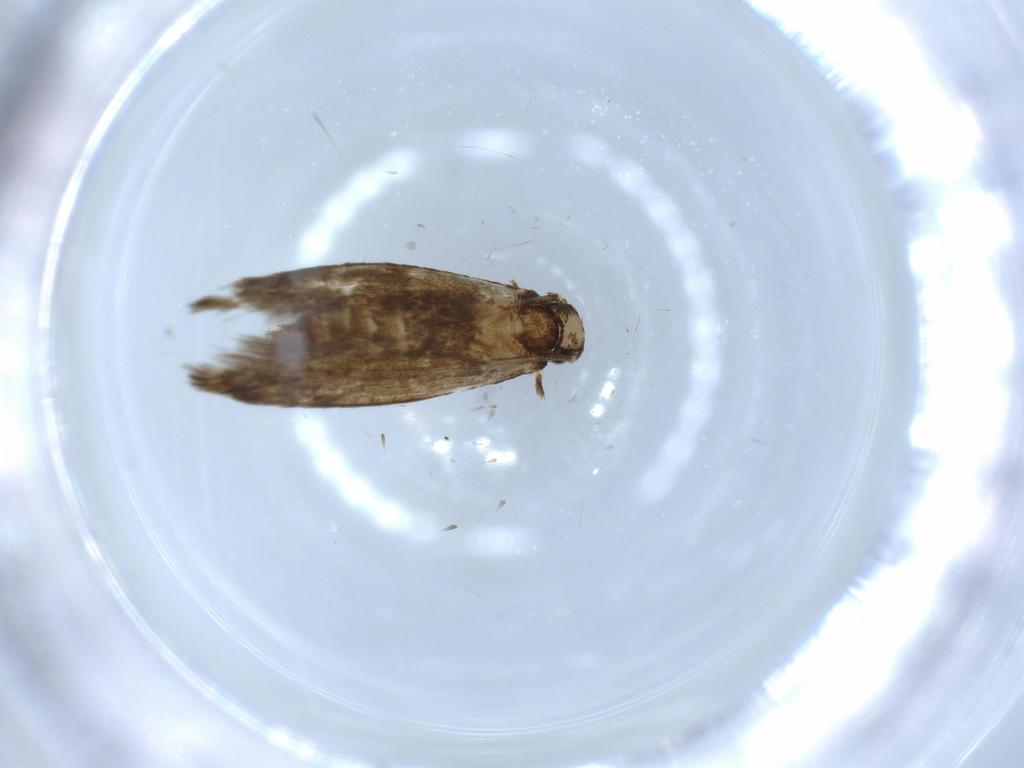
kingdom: Animalia
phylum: Arthropoda
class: Insecta
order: Lepidoptera
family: Tineidae
